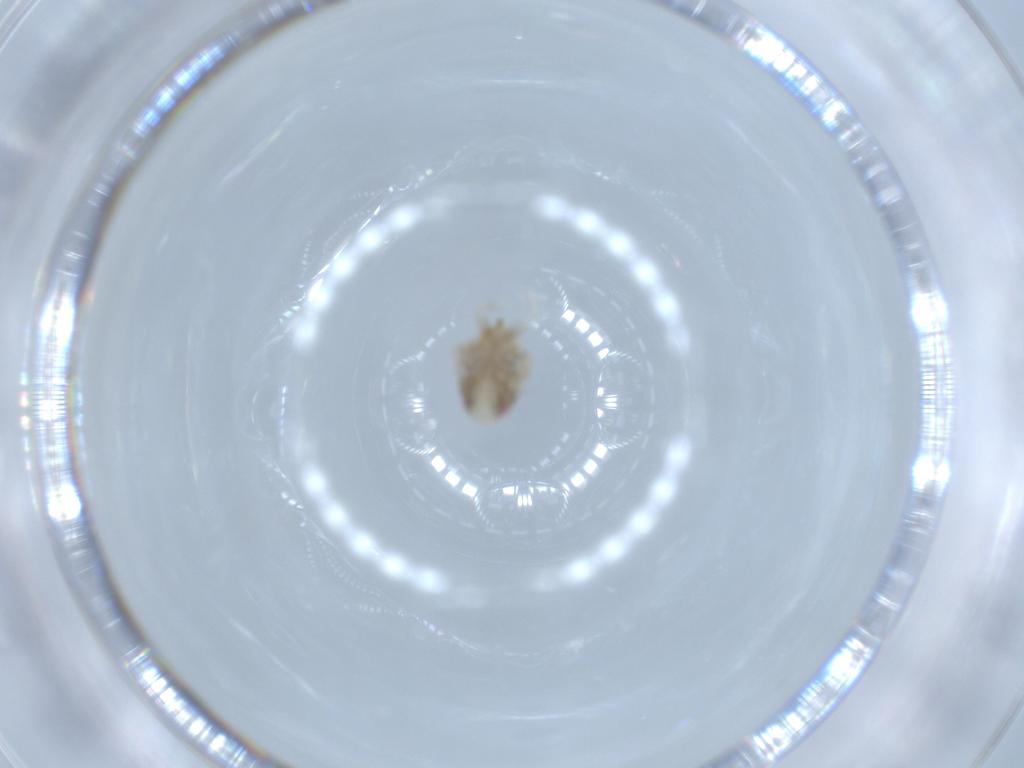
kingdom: Animalia
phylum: Arthropoda
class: Insecta
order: Hemiptera
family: Acanaloniidae
